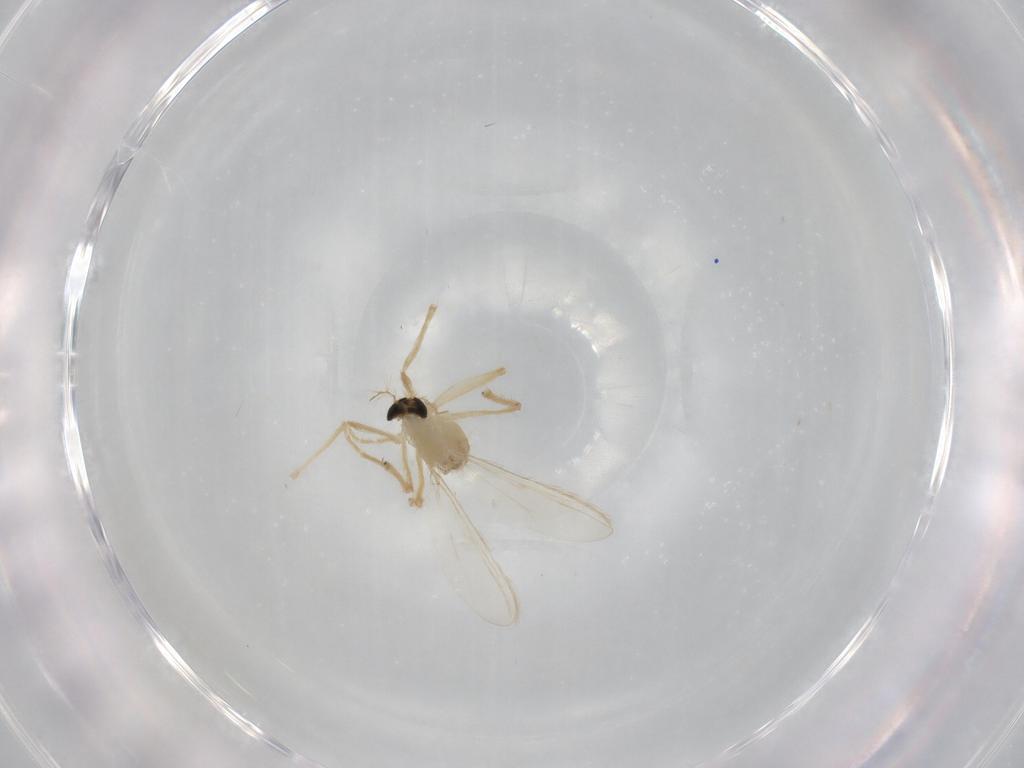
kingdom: Animalia
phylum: Arthropoda
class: Insecta
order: Diptera
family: Chironomidae
